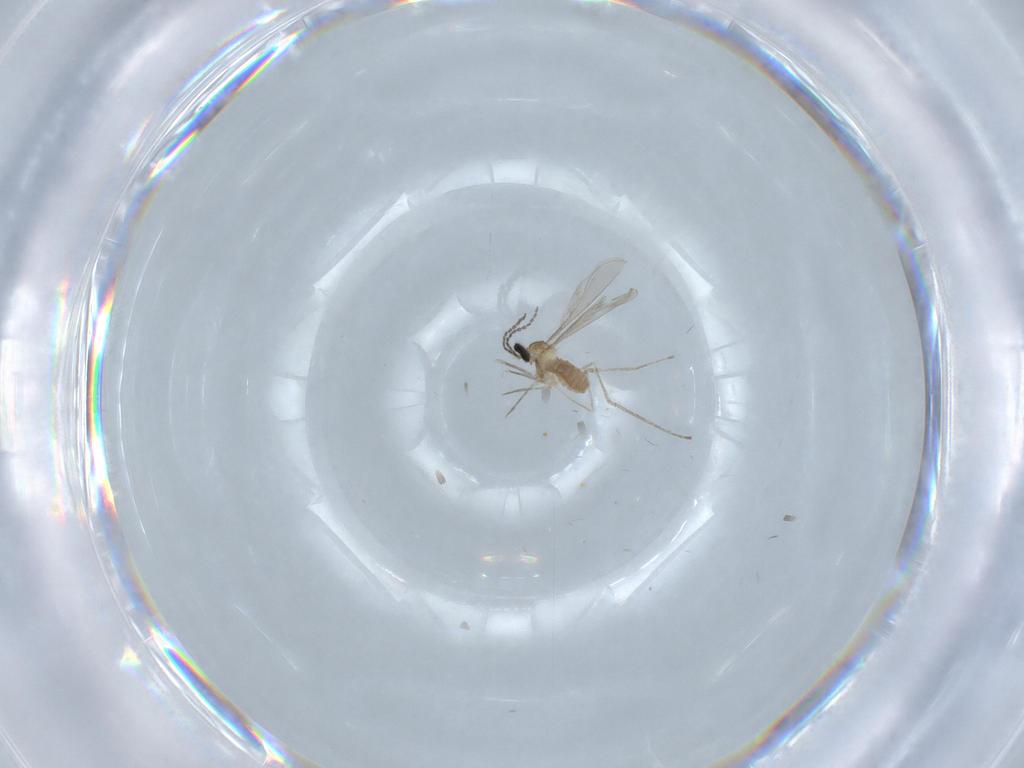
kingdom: Animalia
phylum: Arthropoda
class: Insecta
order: Diptera
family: Cecidomyiidae
